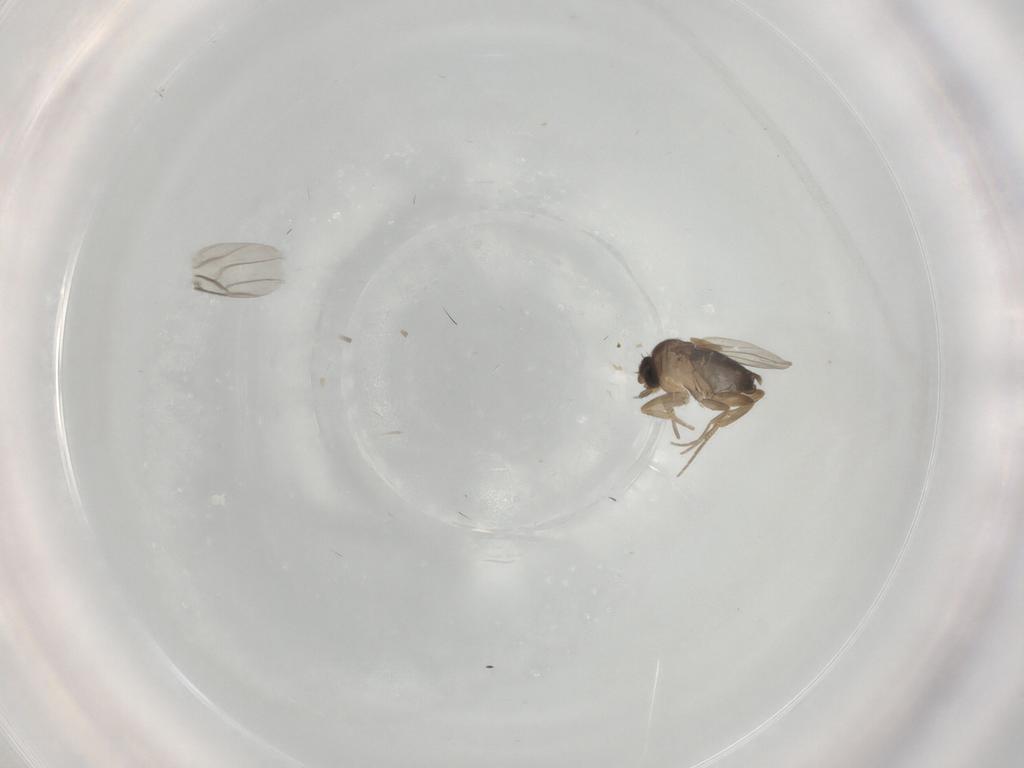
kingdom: Animalia
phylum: Arthropoda
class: Insecta
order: Diptera
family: Phoridae
